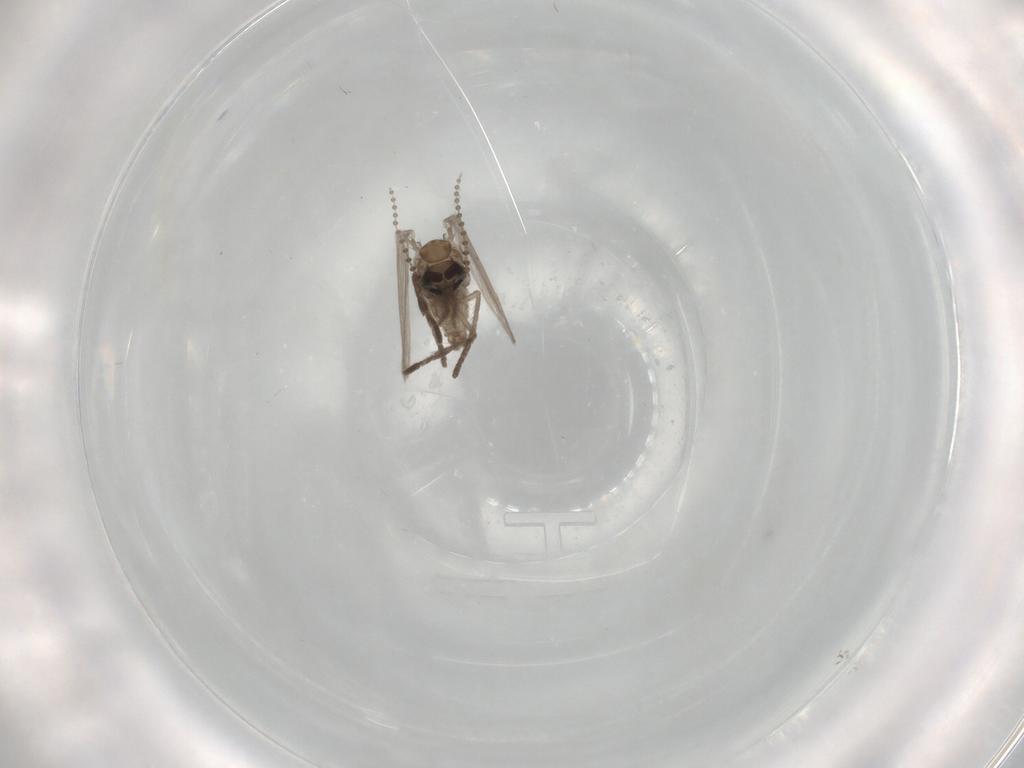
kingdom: Animalia
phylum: Arthropoda
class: Insecta
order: Diptera
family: Psychodidae
